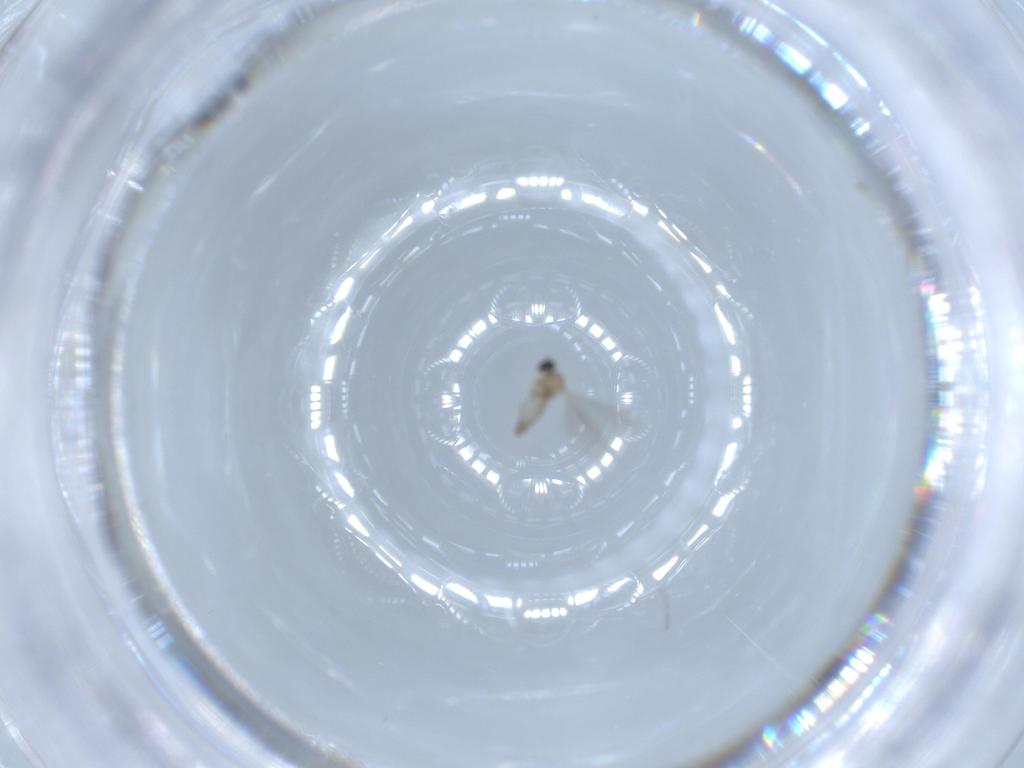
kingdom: Animalia
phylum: Arthropoda
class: Insecta
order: Diptera
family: Cecidomyiidae
